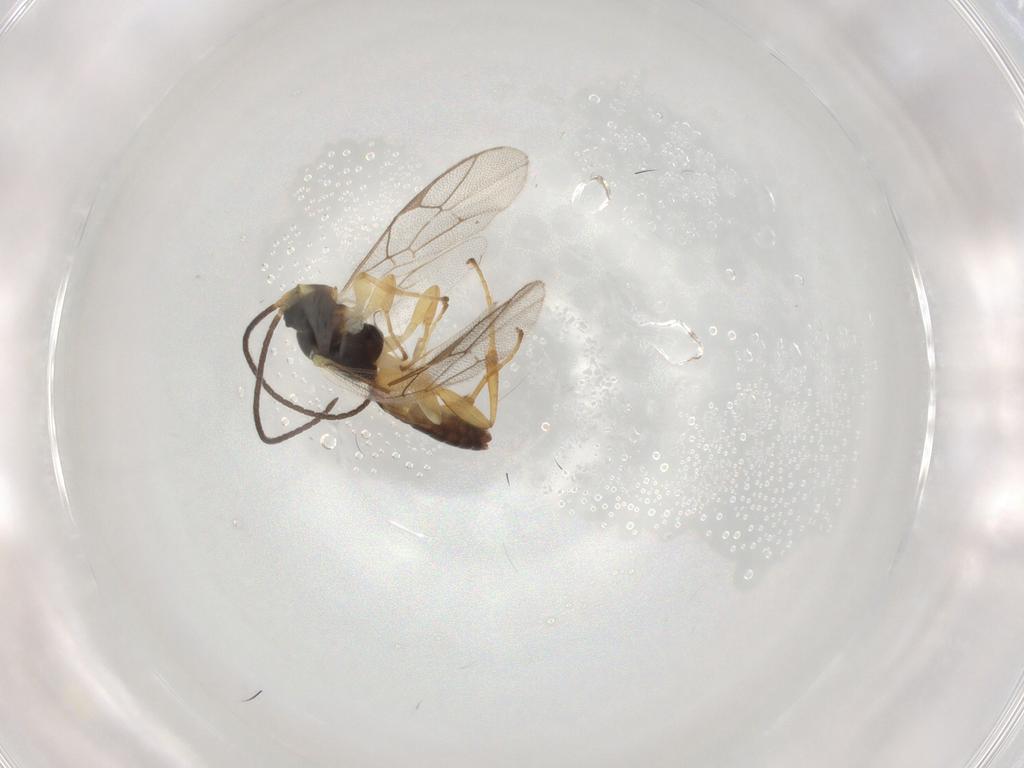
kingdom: Animalia
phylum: Arthropoda
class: Insecta
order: Hymenoptera
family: Ichneumonidae
